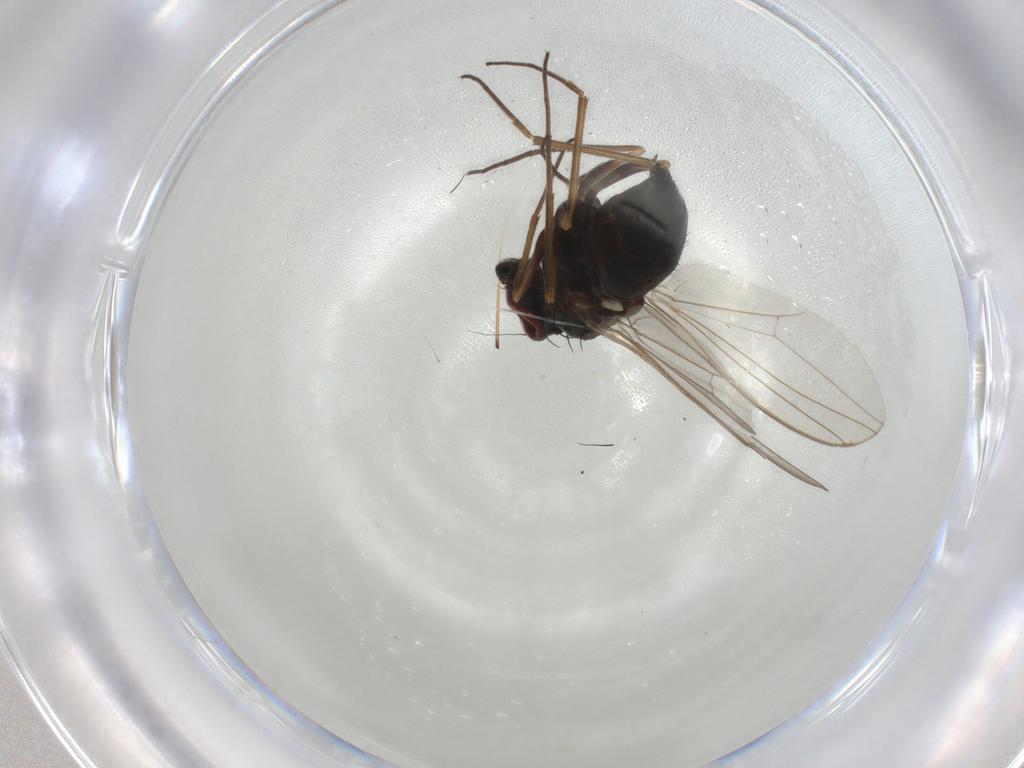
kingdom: Animalia
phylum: Arthropoda
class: Insecta
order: Diptera
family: Dolichopodidae
